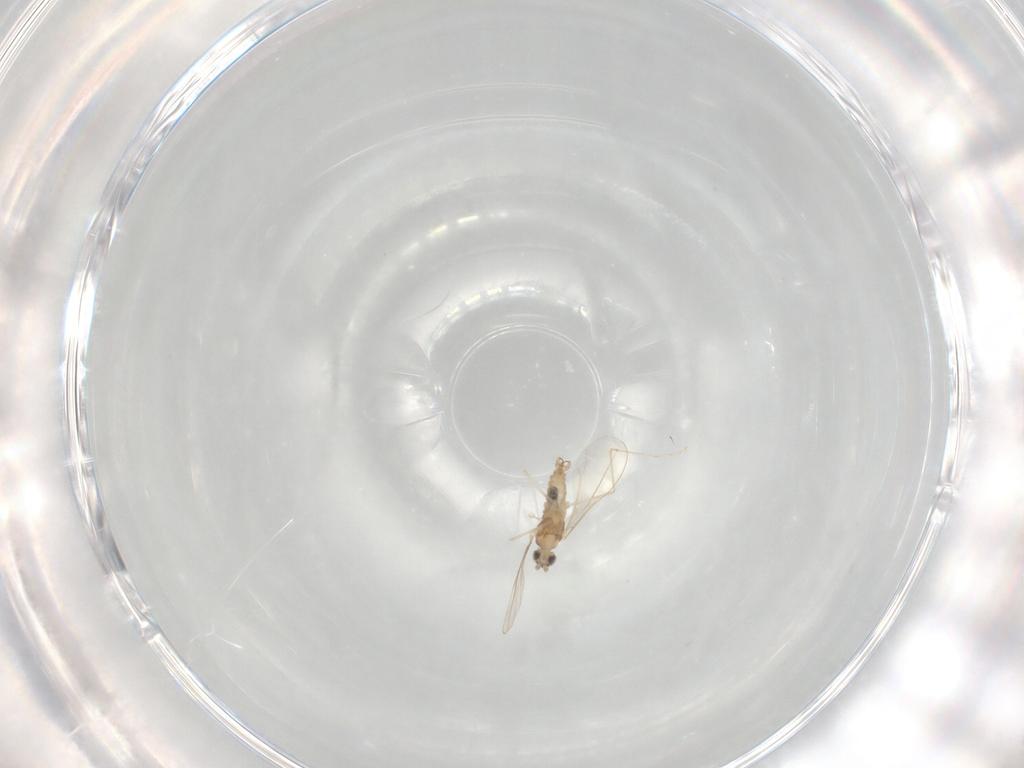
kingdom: Animalia
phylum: Arthropoda
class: Insecta
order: Diptera
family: Cecidomyiidae
